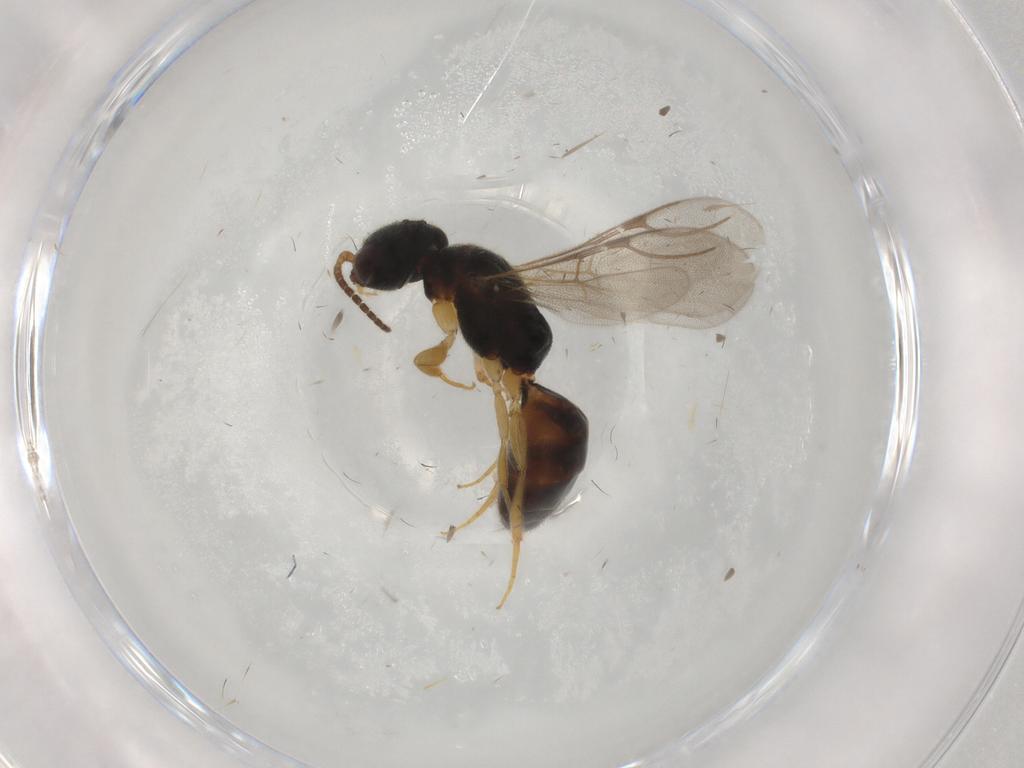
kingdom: Animalia
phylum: Arthropoda
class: Insecta
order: Hymenoptera
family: Bethylidae
